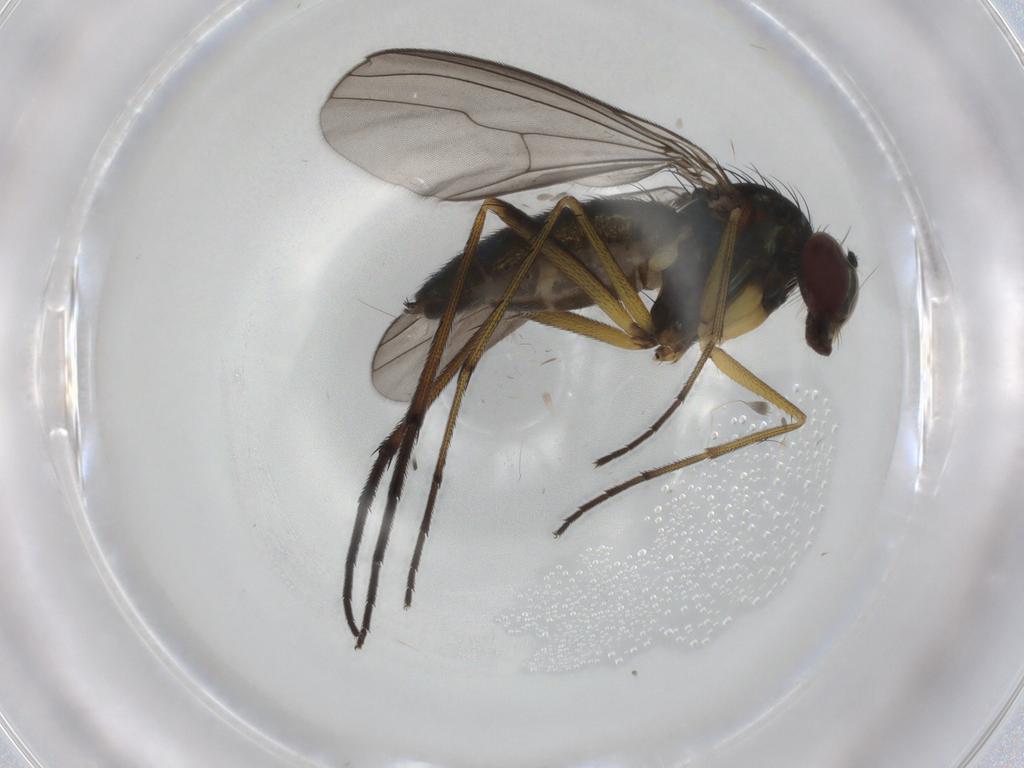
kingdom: Animalia
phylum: Arthropoda
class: Insecta
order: Diptera
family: Dolichopodidae
